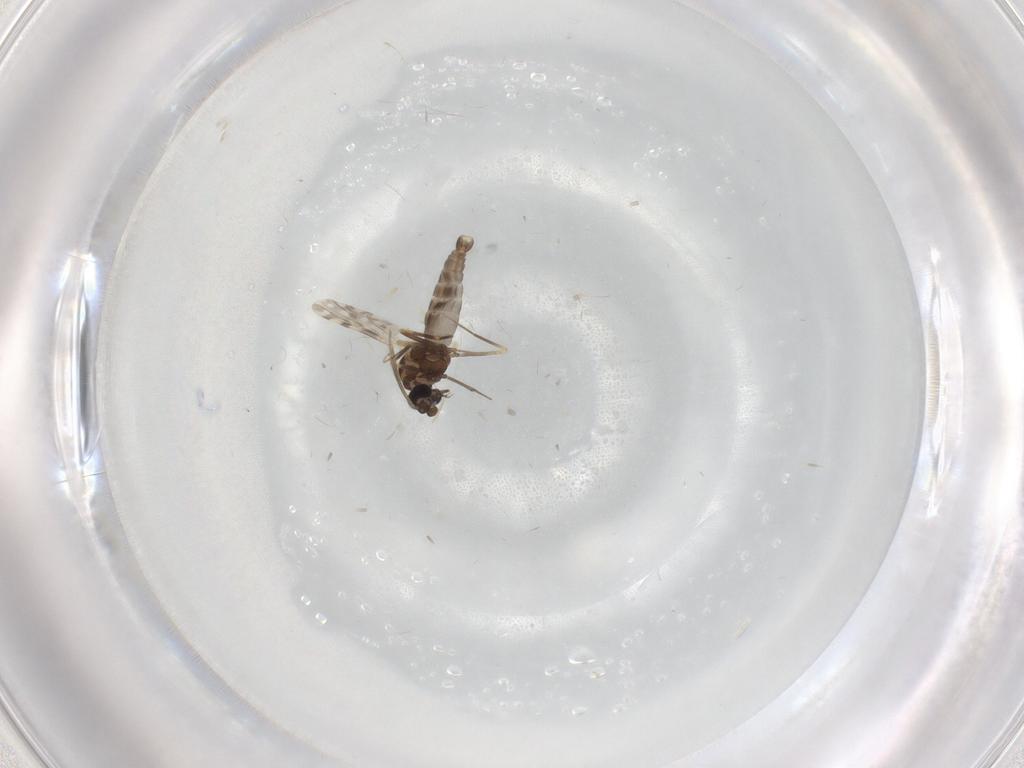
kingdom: Animalia
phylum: Arthropoda
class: Insecta
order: Diptera
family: Ceratopogonidae
